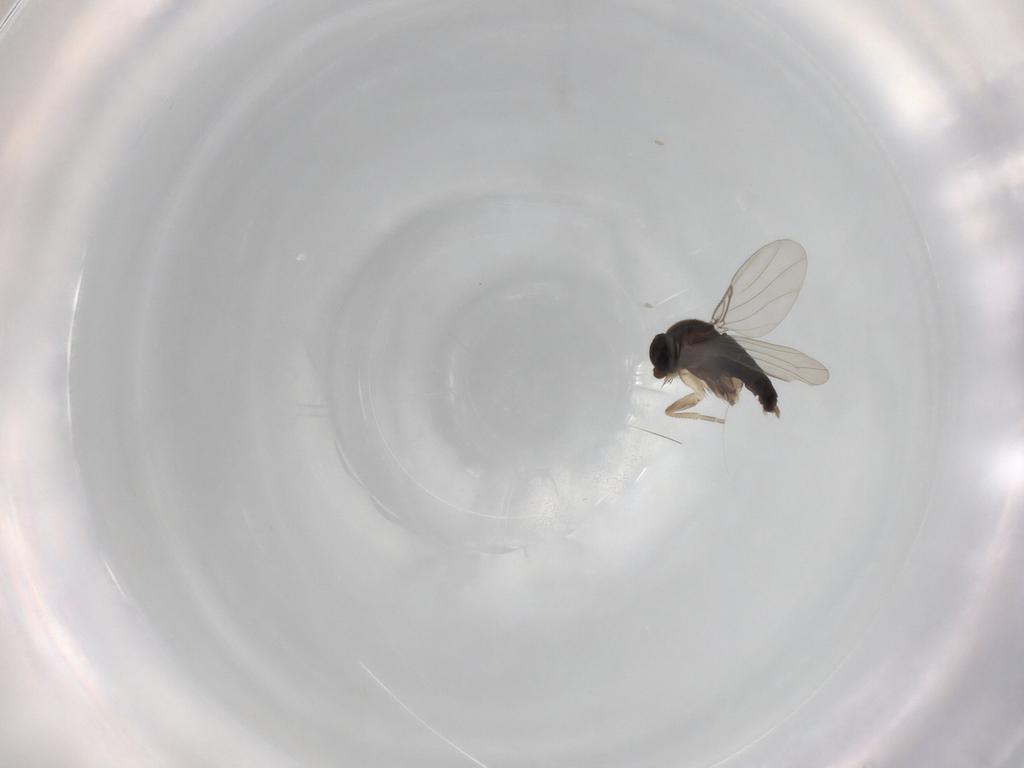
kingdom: Animalia
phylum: Arthropoda
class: Insecta
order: Diptera
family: Phoridae
